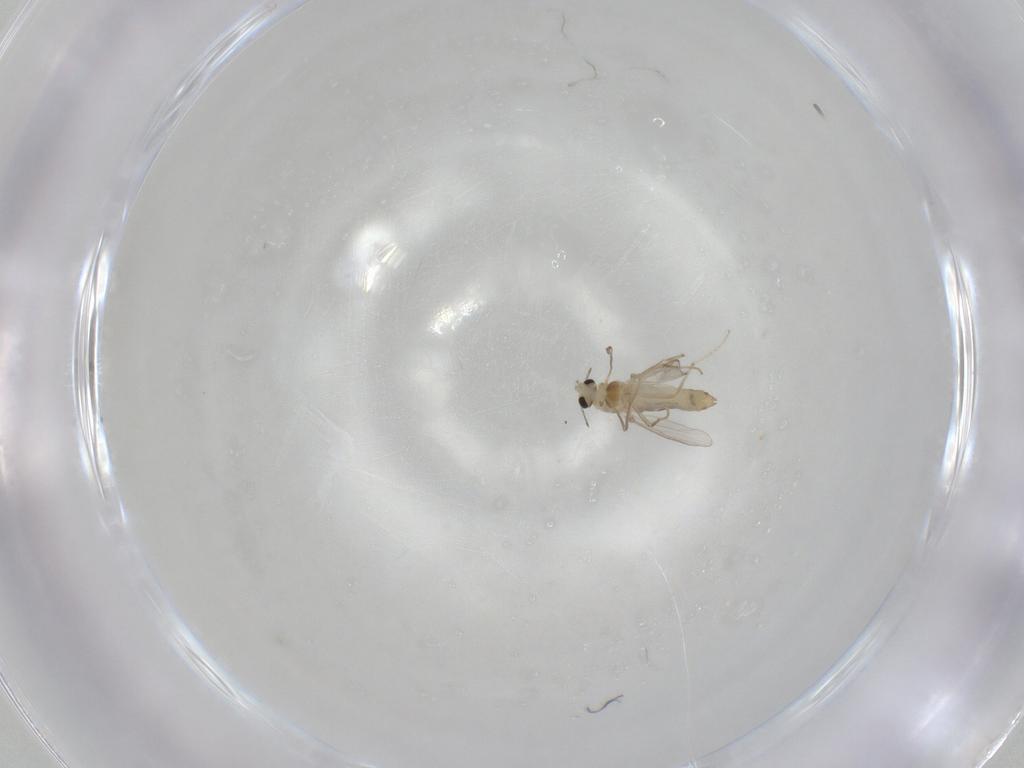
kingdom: Animalia
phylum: Arthropoda
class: Insecta
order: Diptera
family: Chironomidae
